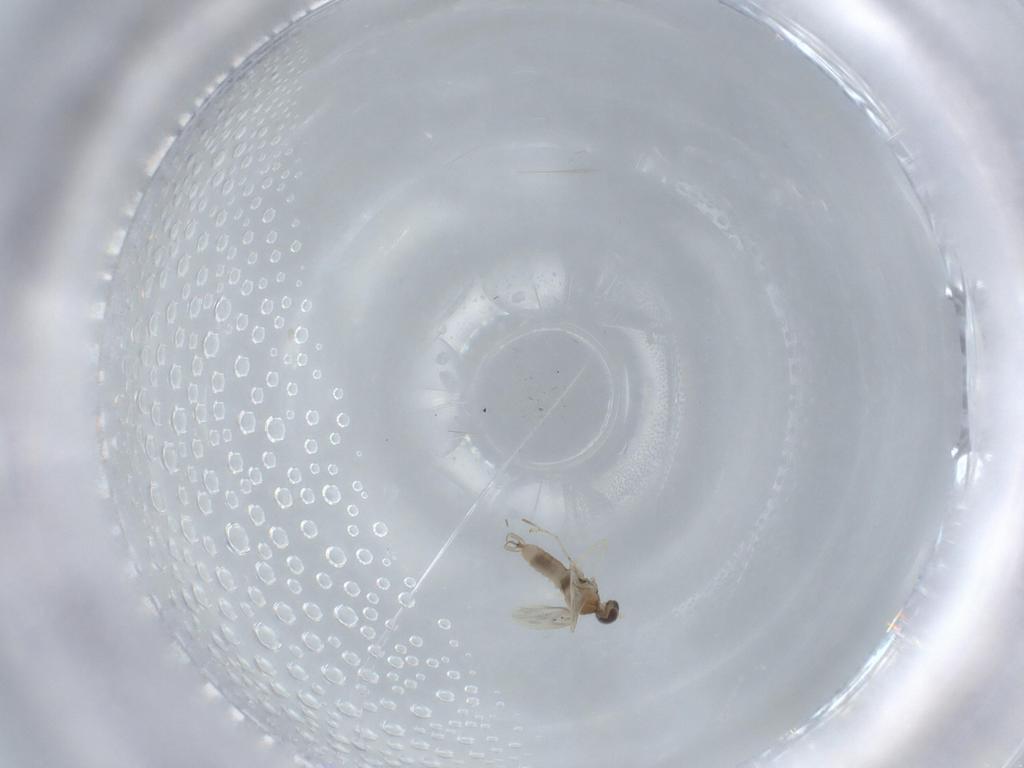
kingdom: Animalia
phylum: Arthropoda
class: Insecta
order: Diptera
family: Cecidomyiidae
